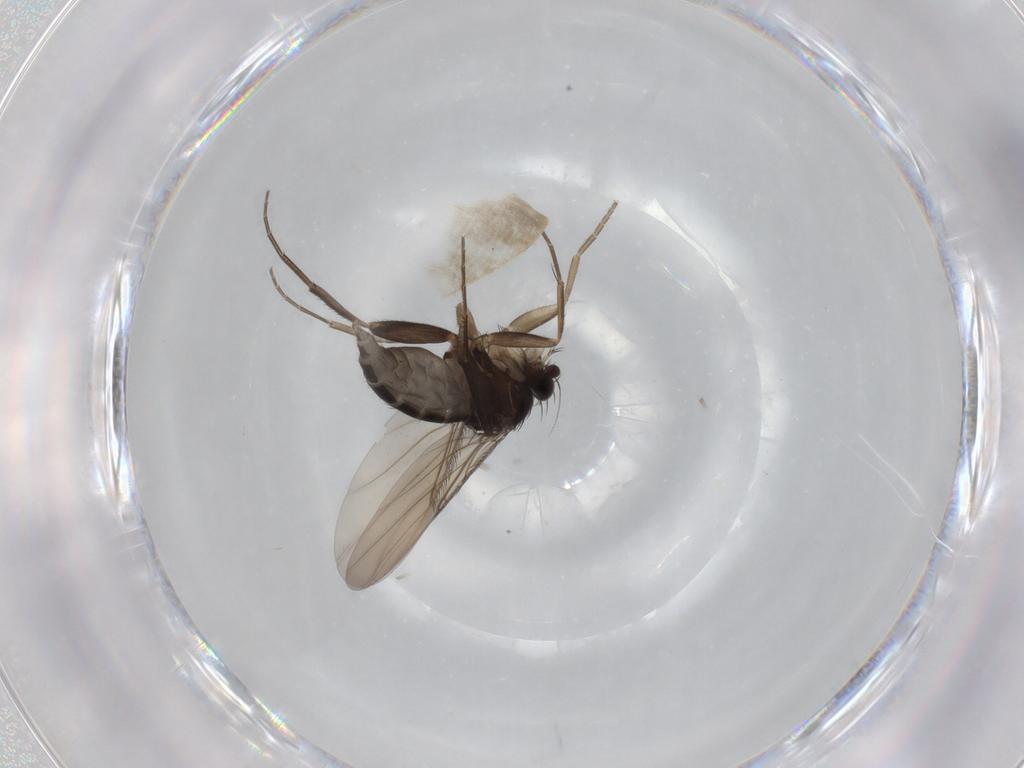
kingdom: Animalia
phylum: Arthropoda
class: Insecta
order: Diptera
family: Phoridae
